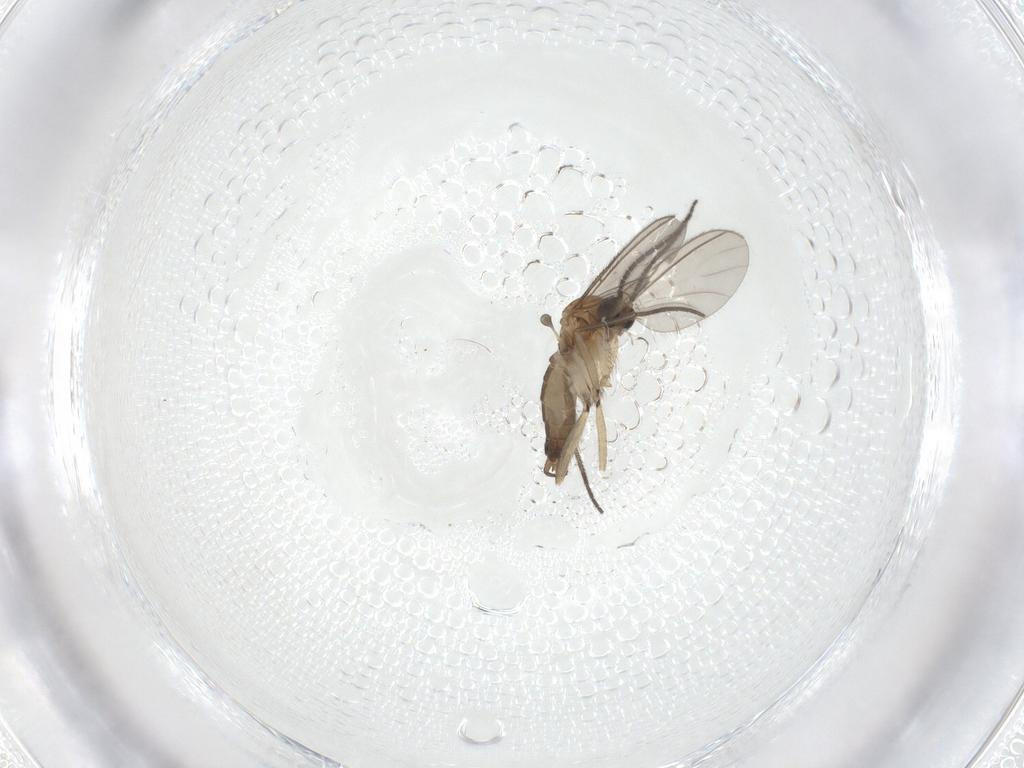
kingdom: Animalia
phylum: Arthropoda
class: Insecta
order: Diptera
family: Sciaridae
